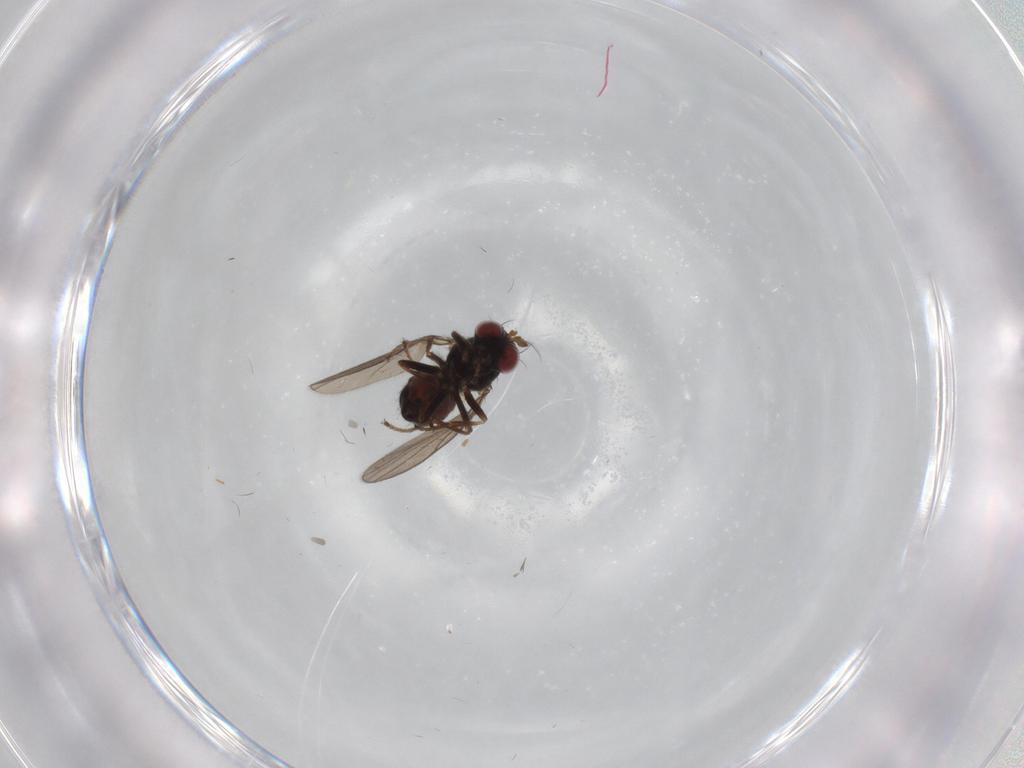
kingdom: Animalia
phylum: Arthropoda
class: Insecta
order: Diptera
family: Ephydridae
